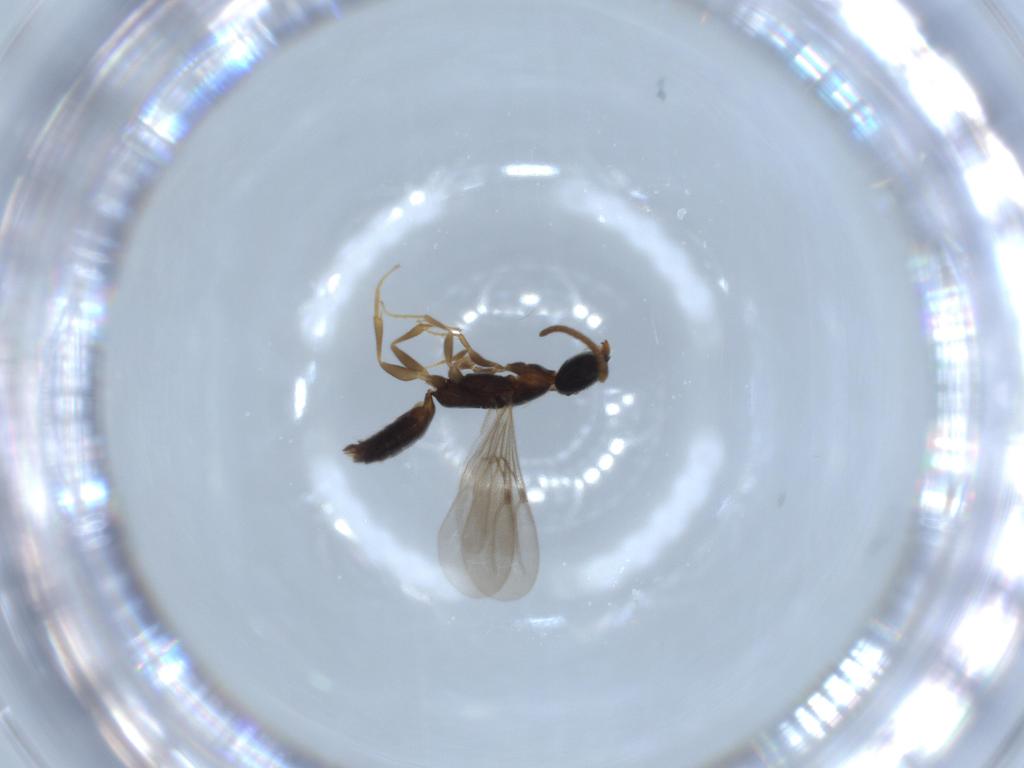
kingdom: Animalia
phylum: Arthropoda
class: Insecta
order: Hymenoptera
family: Bethylidae
